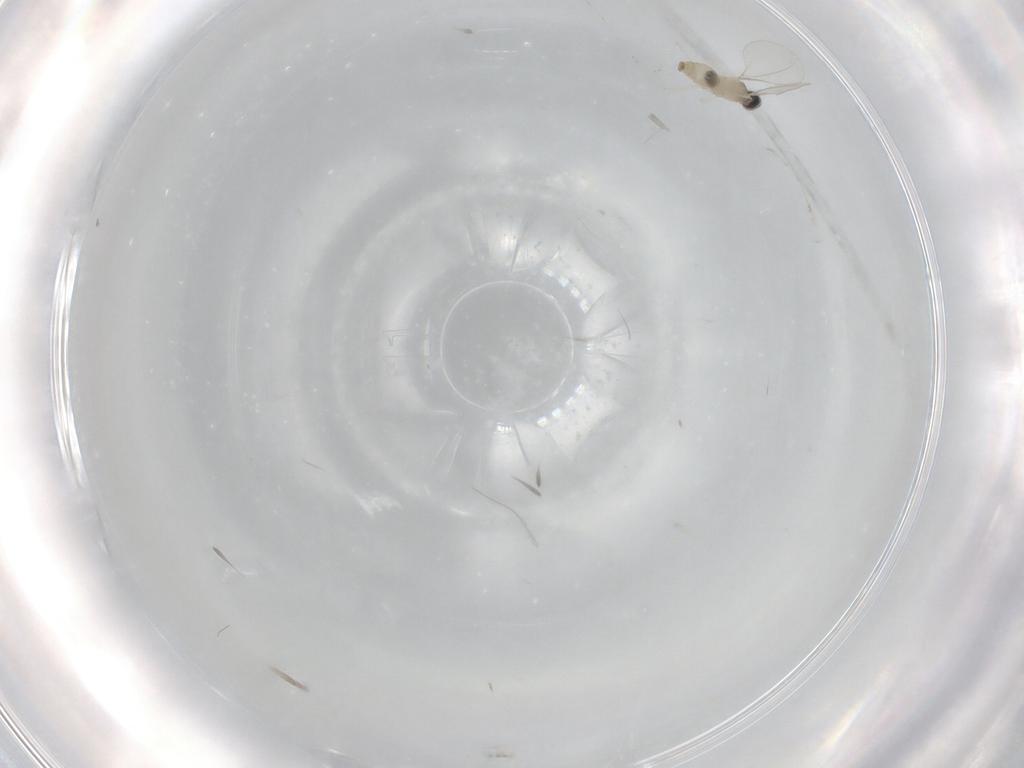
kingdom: Animalia
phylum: Arthropoda
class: Insecta
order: Diptera
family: Cecidomyiidae
